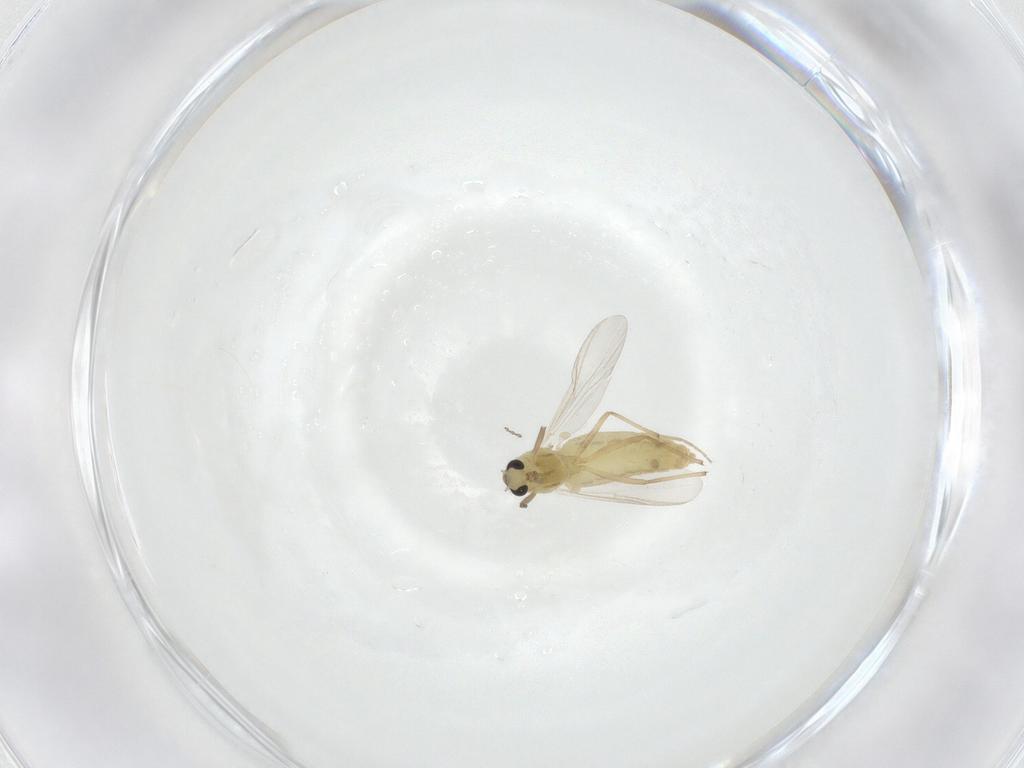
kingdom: Animalia
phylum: Arthropoda
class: Insecta
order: Diptera
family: Chironomidae
